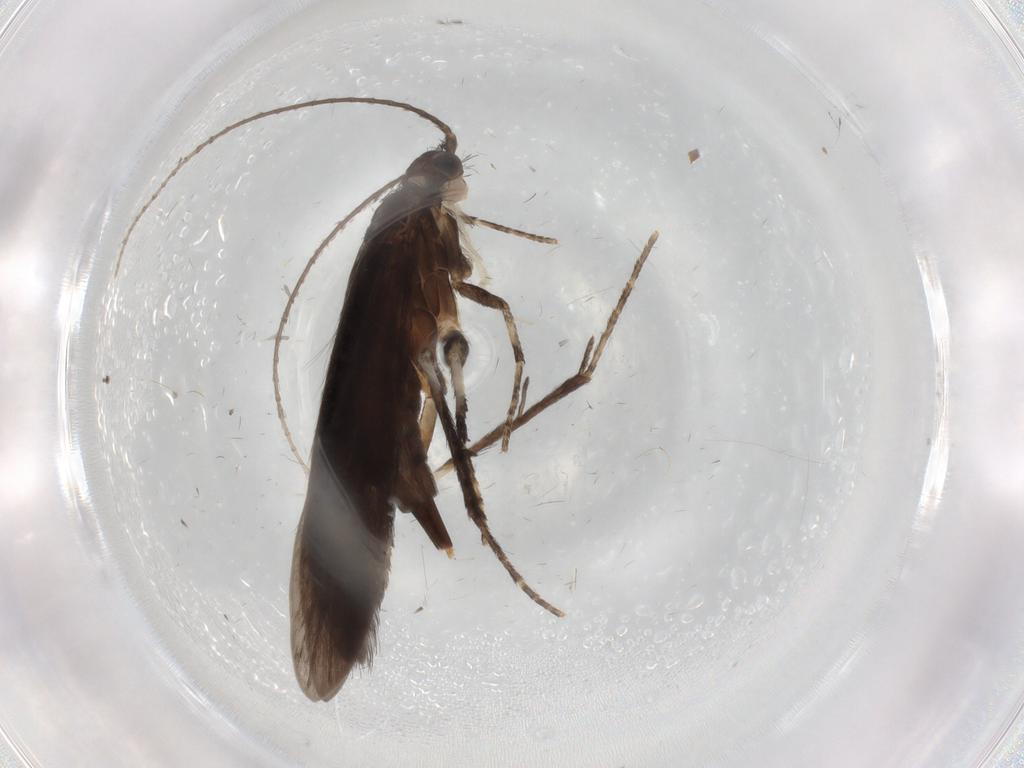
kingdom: Animalia
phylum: Arthropoda
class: Insecta
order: Trichoptera
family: Xiphocentronidae
